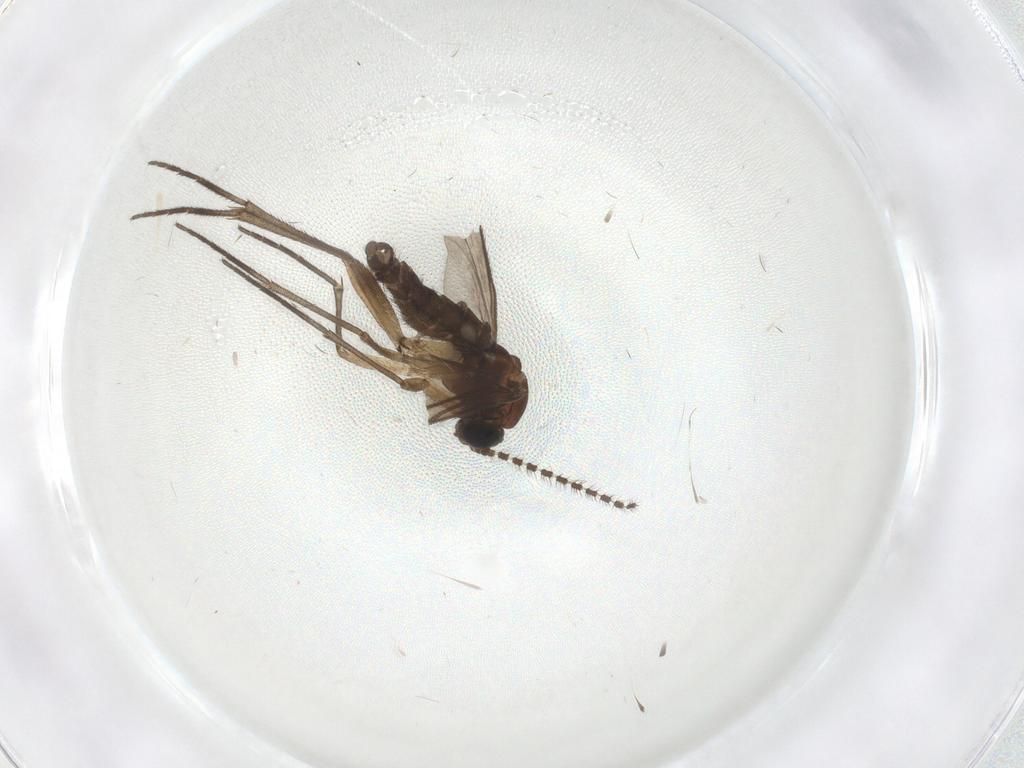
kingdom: Animalia
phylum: Arthropoda
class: Insecta
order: Diptera
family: Sciaridae
